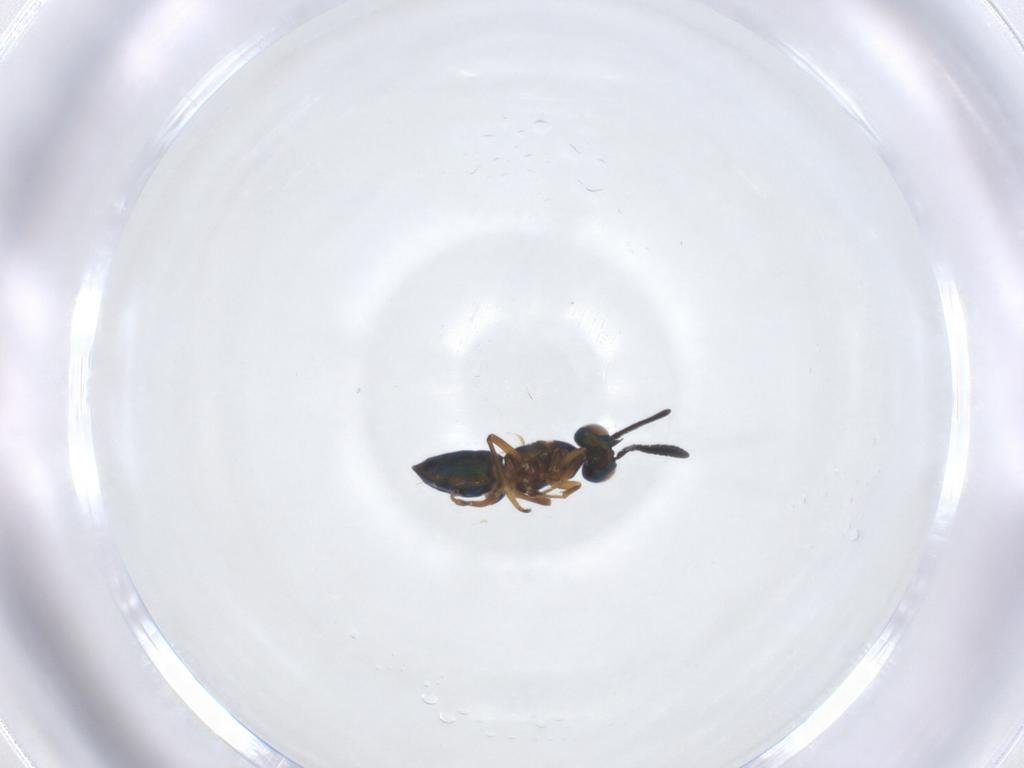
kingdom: Animalia
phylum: Arthropoda
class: Insecta
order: Hymenoptera
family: Encyrtidae
